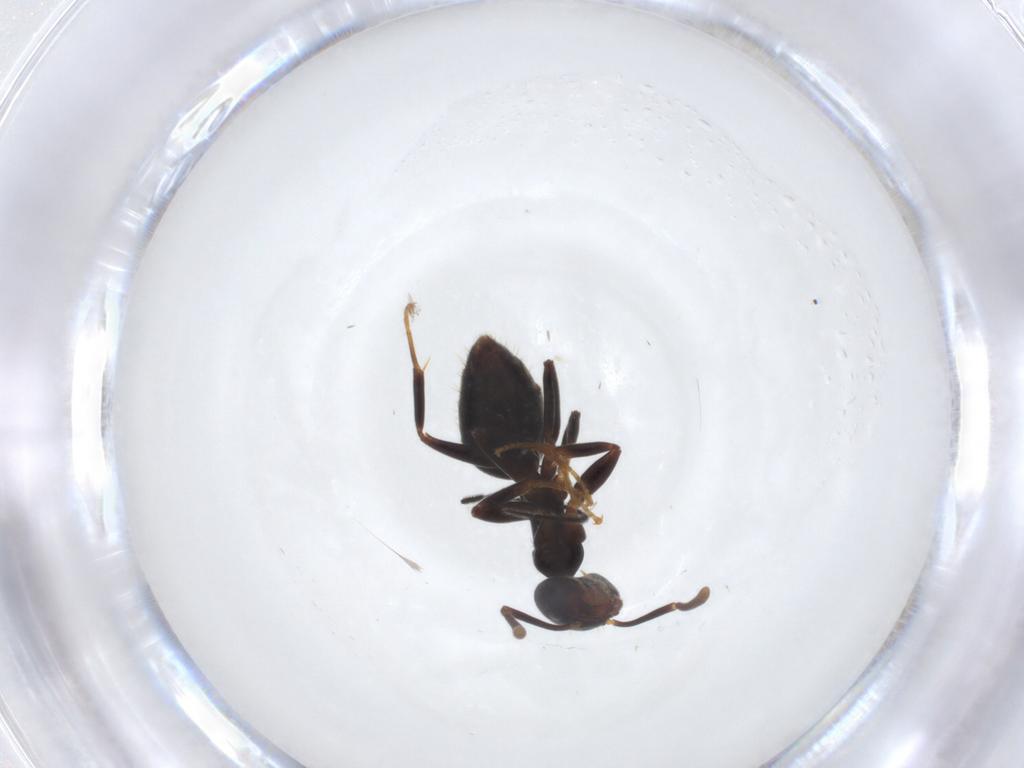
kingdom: Animalia
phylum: Arthropoda
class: Insecta
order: Hymenoptera
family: Formicidae
